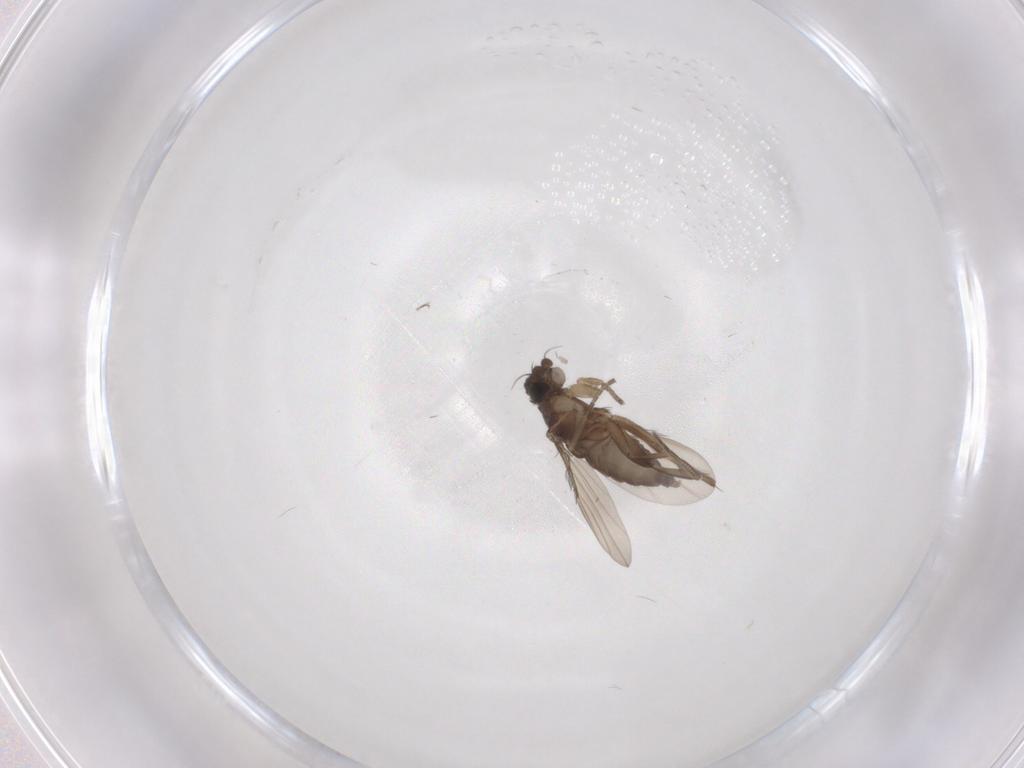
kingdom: Animalia
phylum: Arthropoda
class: Insecta
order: Diptera
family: Phoridae
